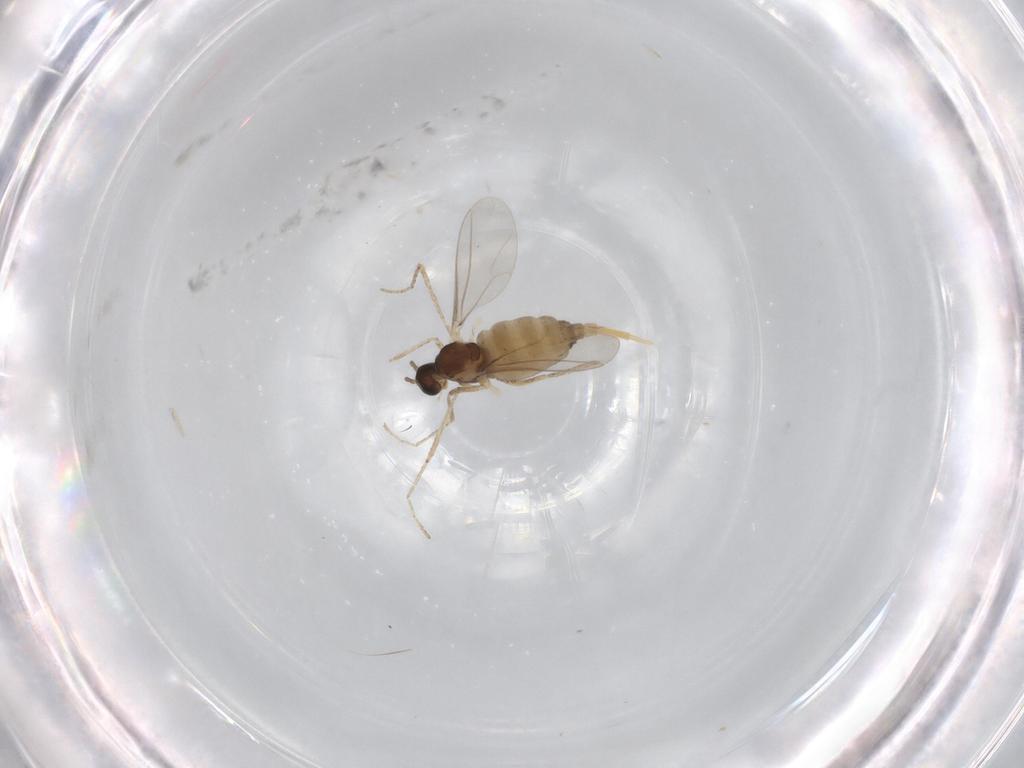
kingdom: Animalia
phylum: Arthropoda
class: Insecta
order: Diptera
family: Cecidomyiidae
